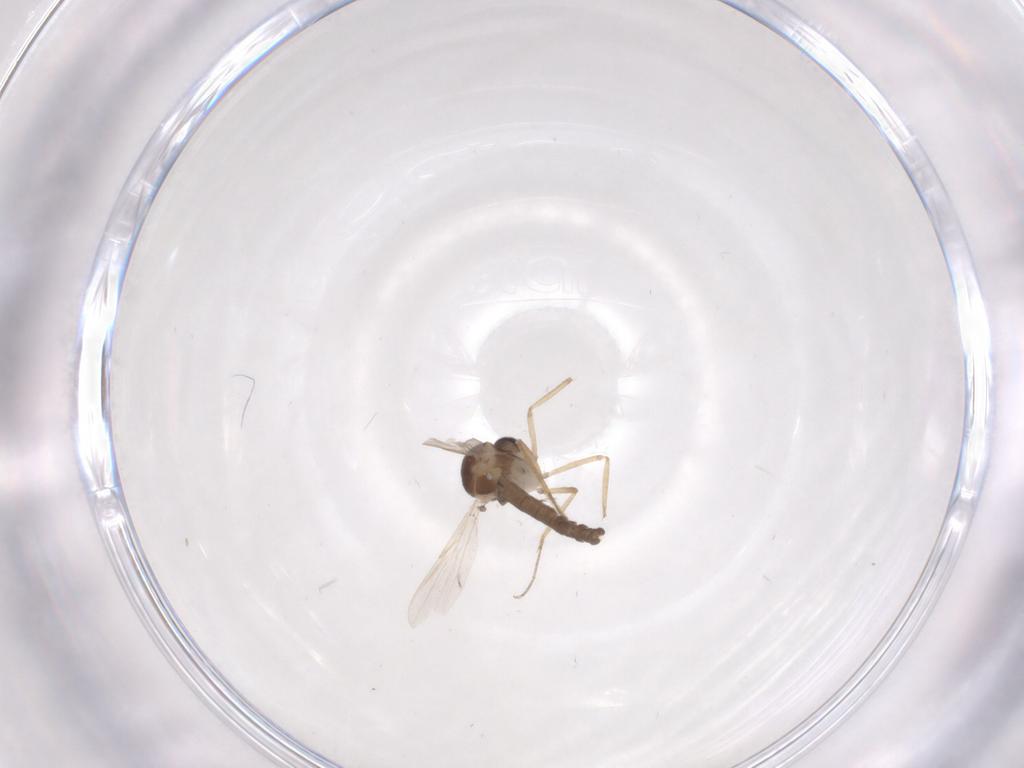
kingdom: Animalia
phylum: Arthropoda
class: Insecta
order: Diptera
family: Ceratopogonidae
